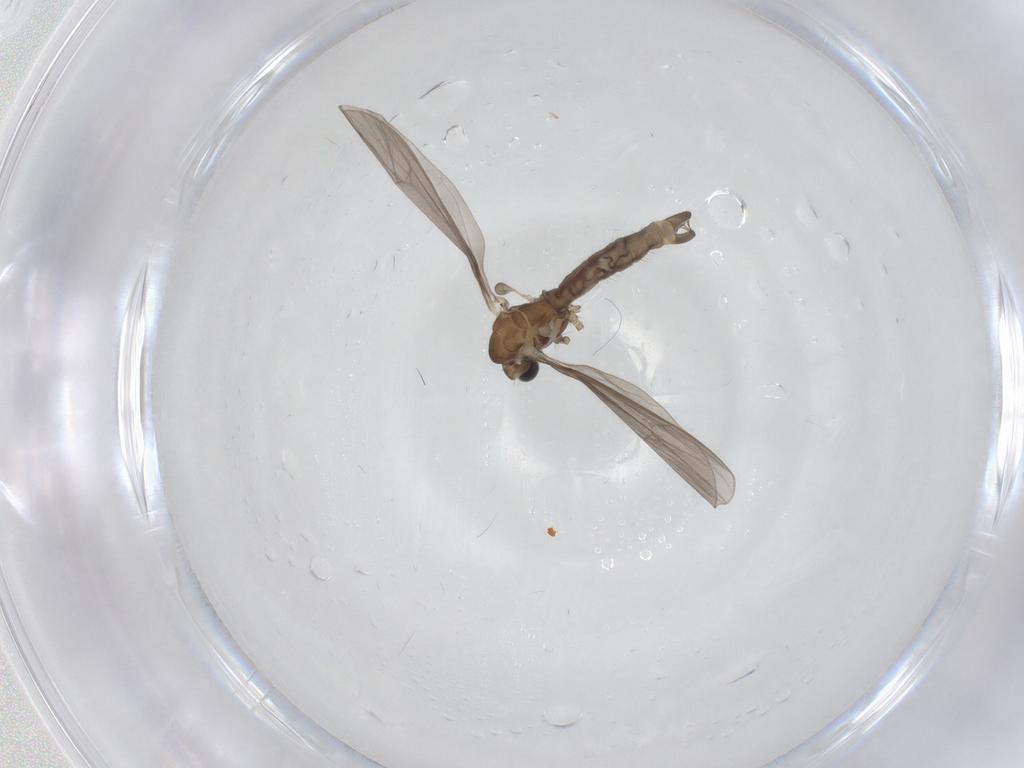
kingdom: Animalia
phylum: Arthropoda
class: Insecta
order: Diptera
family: Limoniidae
